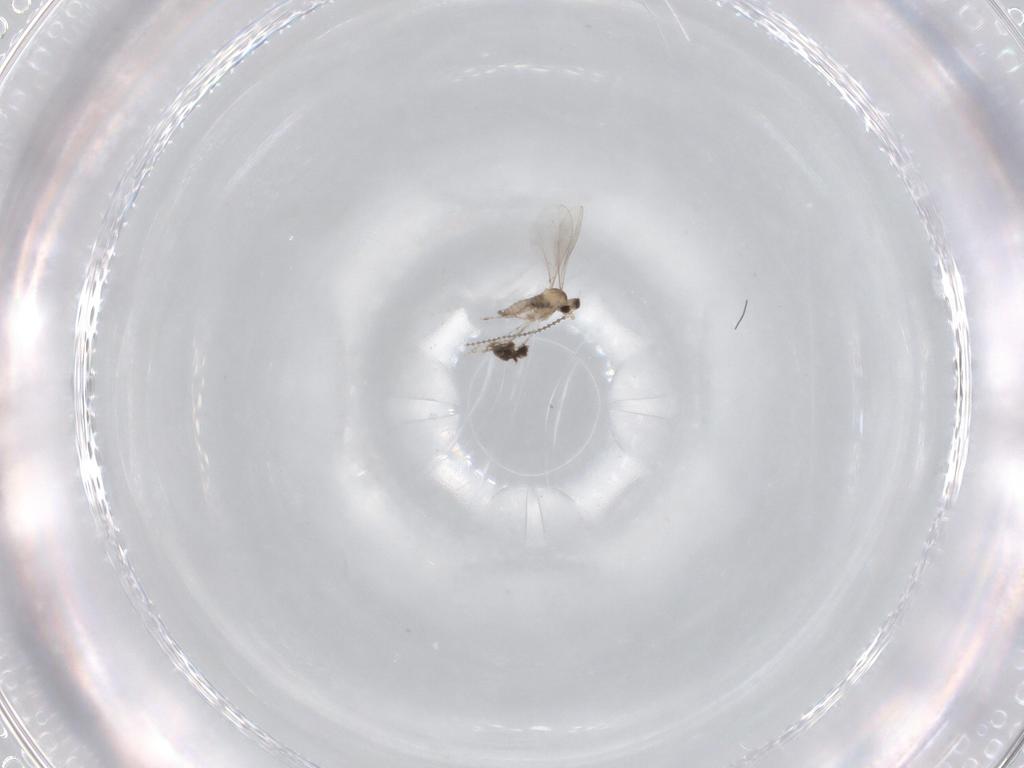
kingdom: Animalia
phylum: Arthropoda
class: Insecta
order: Diptera
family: Cecidomyiidae
